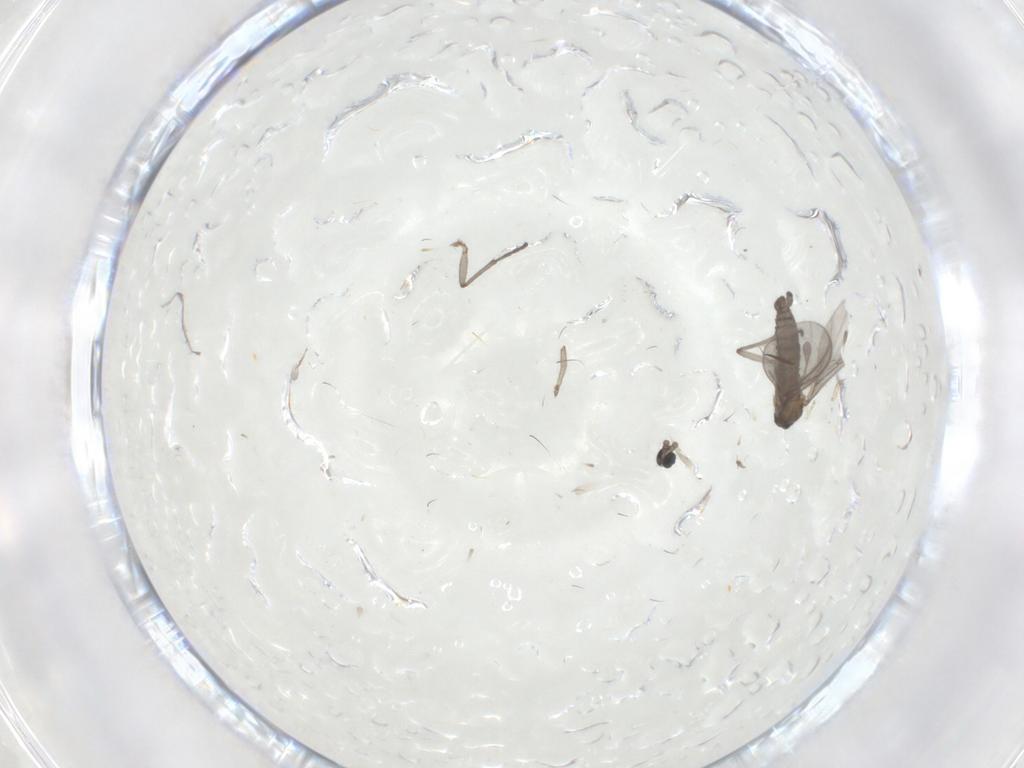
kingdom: Animalia
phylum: Arthropoda
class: Insecta
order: Diptera
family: Sciaridae
